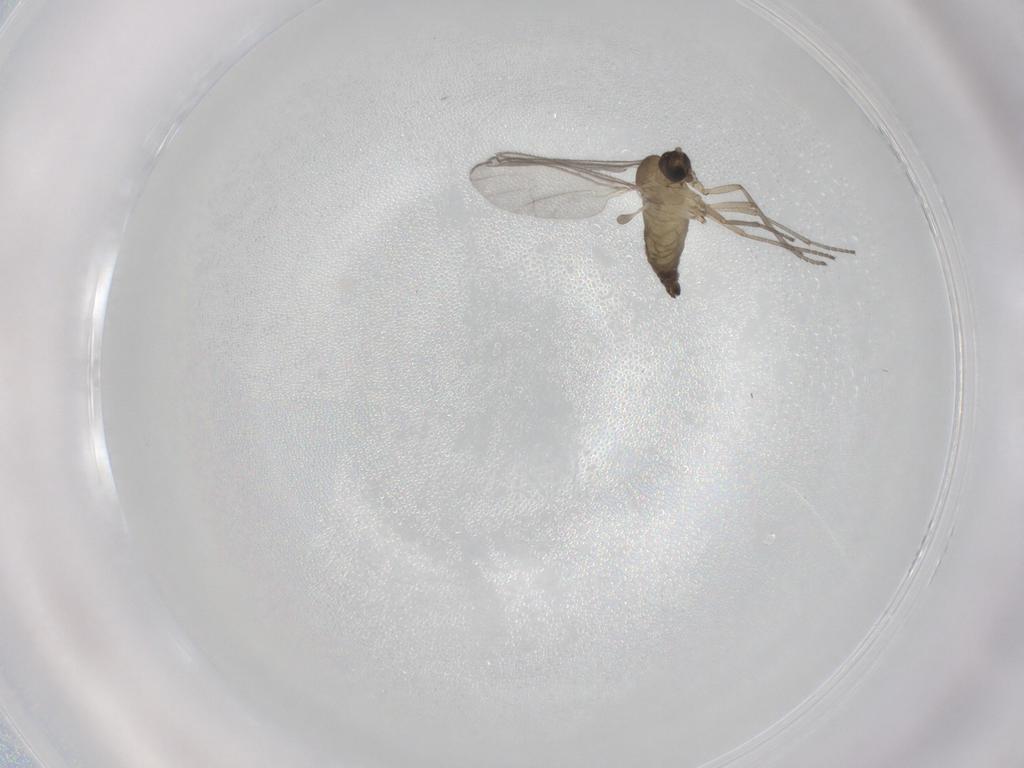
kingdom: Animalia
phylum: Arthropoda
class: Insecta
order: Diptera
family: Sciaridae
